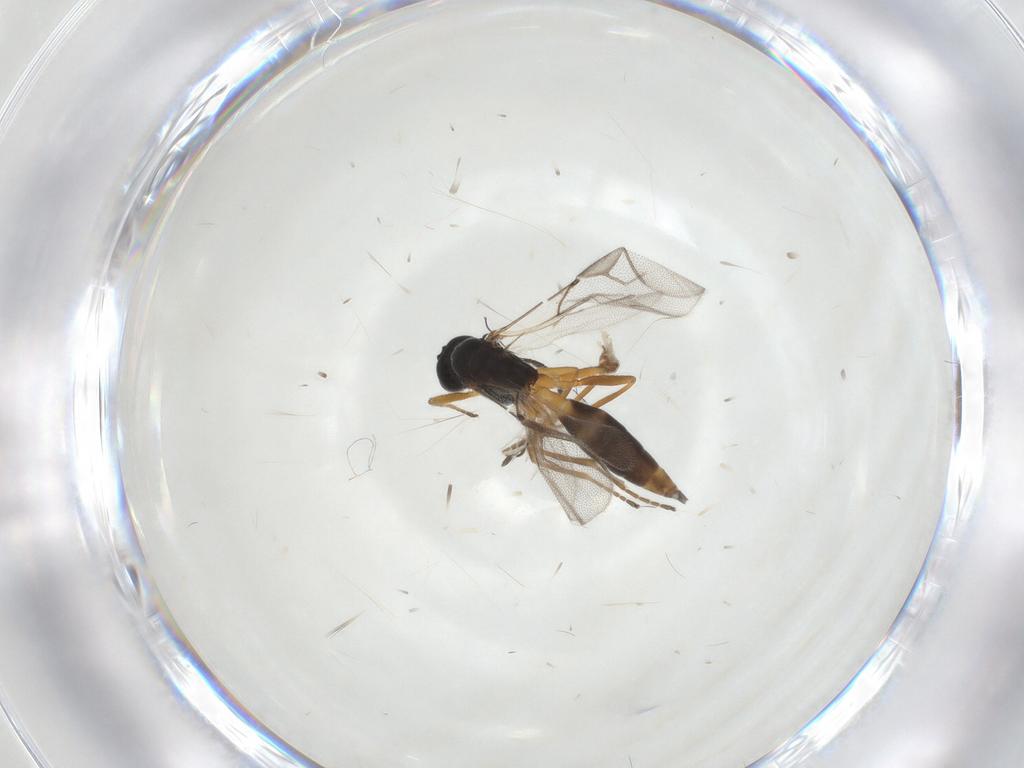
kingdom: Animalia
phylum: Arthropoda
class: Insecta
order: Hymenoptera
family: Braconidae
